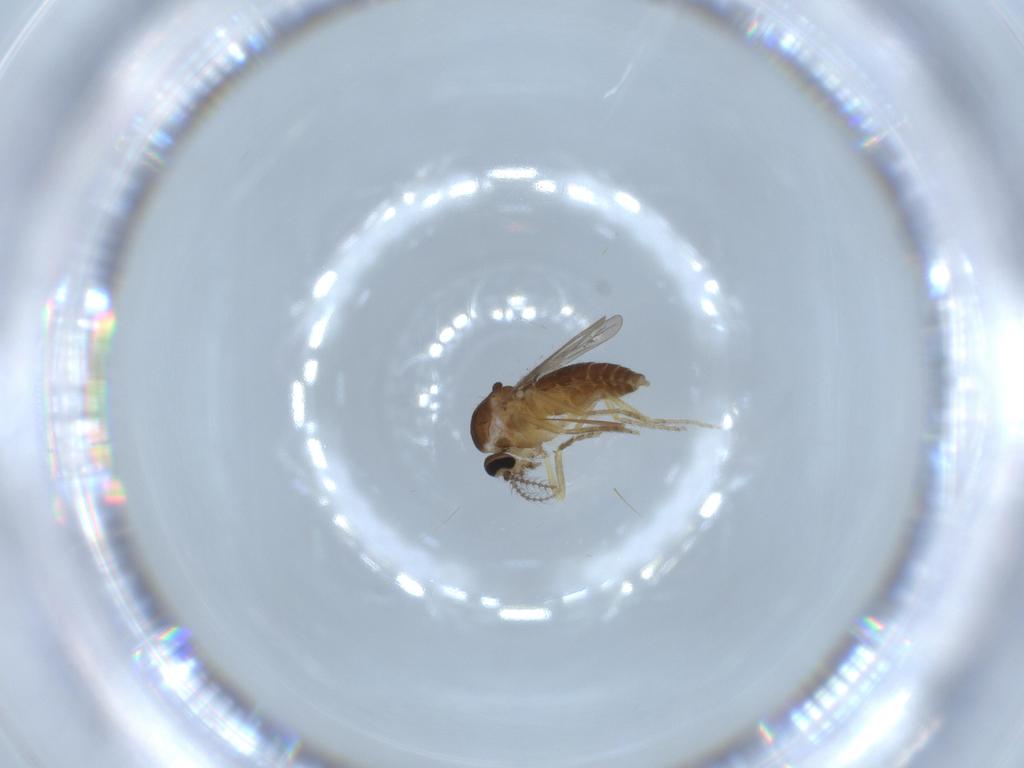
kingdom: Animalia
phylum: Arthropoda
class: Insecta
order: Diptera
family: Ceratopogonidae
